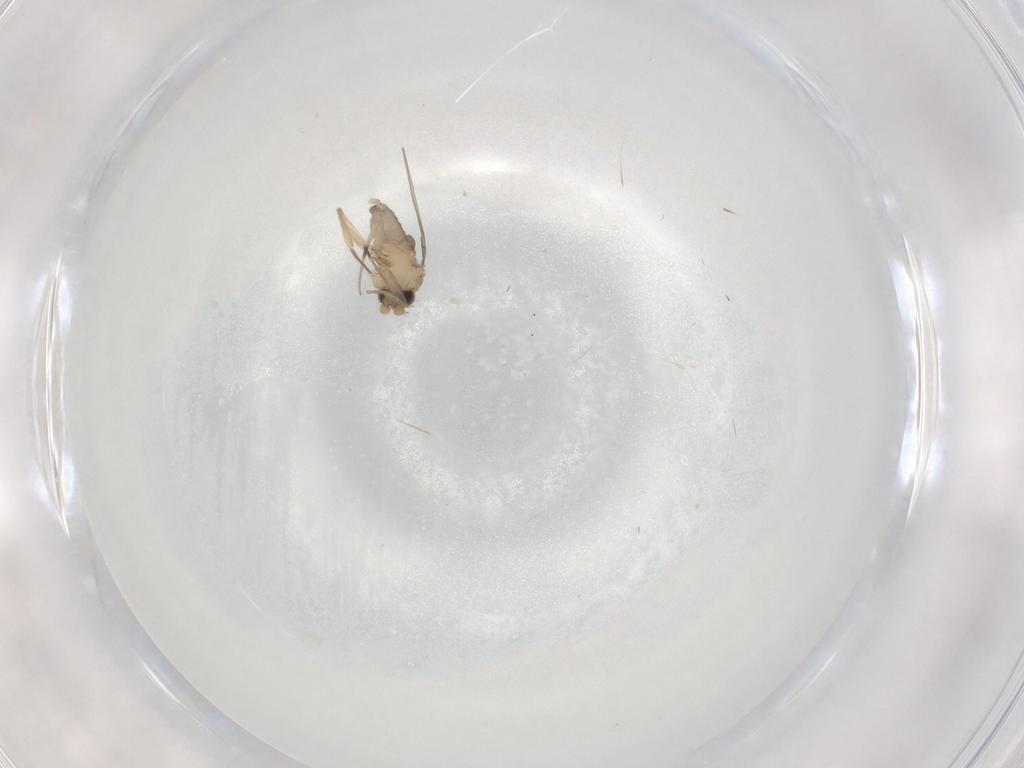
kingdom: Animalia
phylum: Arthropoda
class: Insecta
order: Diptera
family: Phoridae
